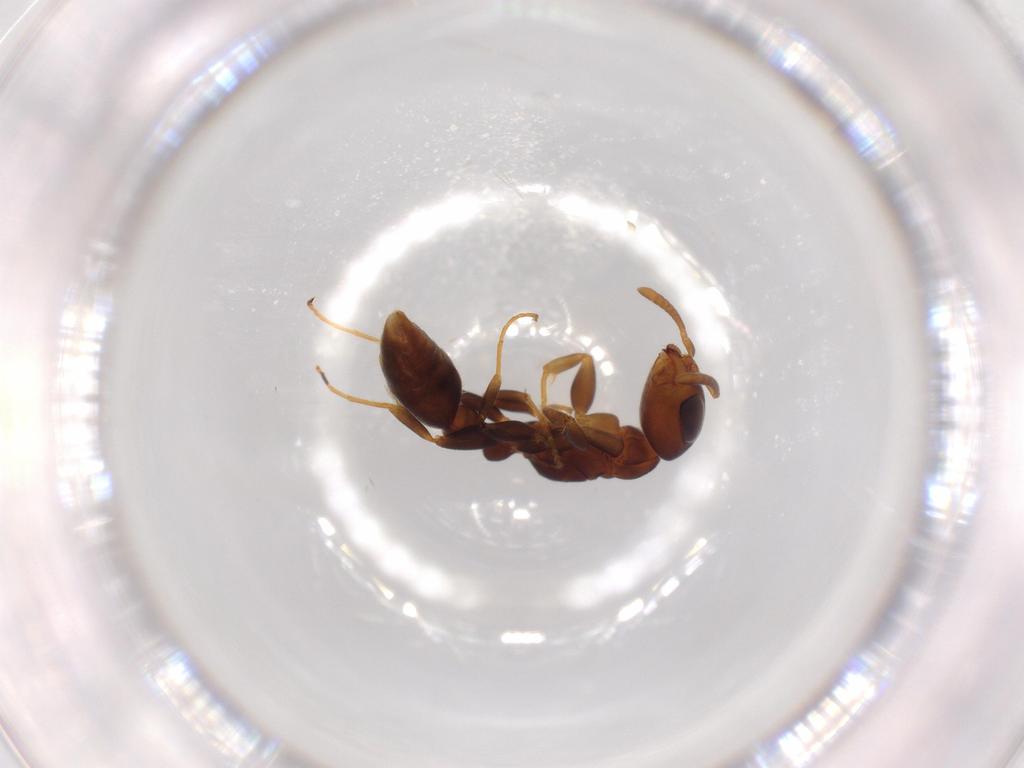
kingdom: Animalia
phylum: Arthropoda
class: Insecta
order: Hymenoptera
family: Formicidae
